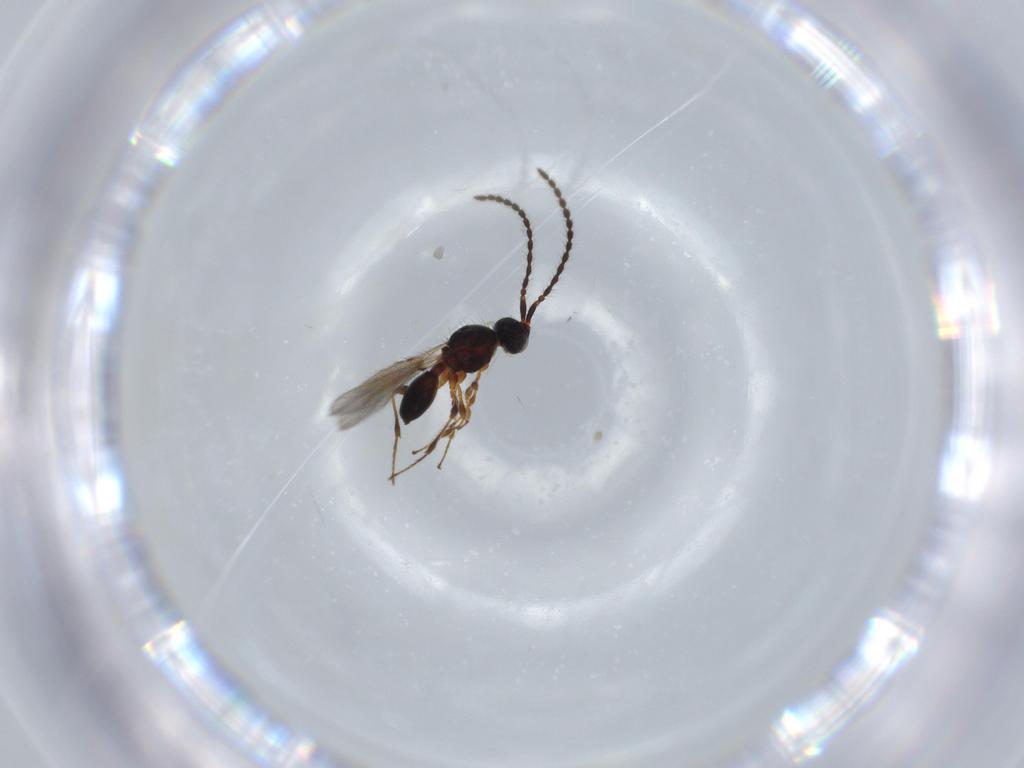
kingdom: Animalia
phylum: Arthropoda
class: Insecta
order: Hymenoptera
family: Diapriidae
